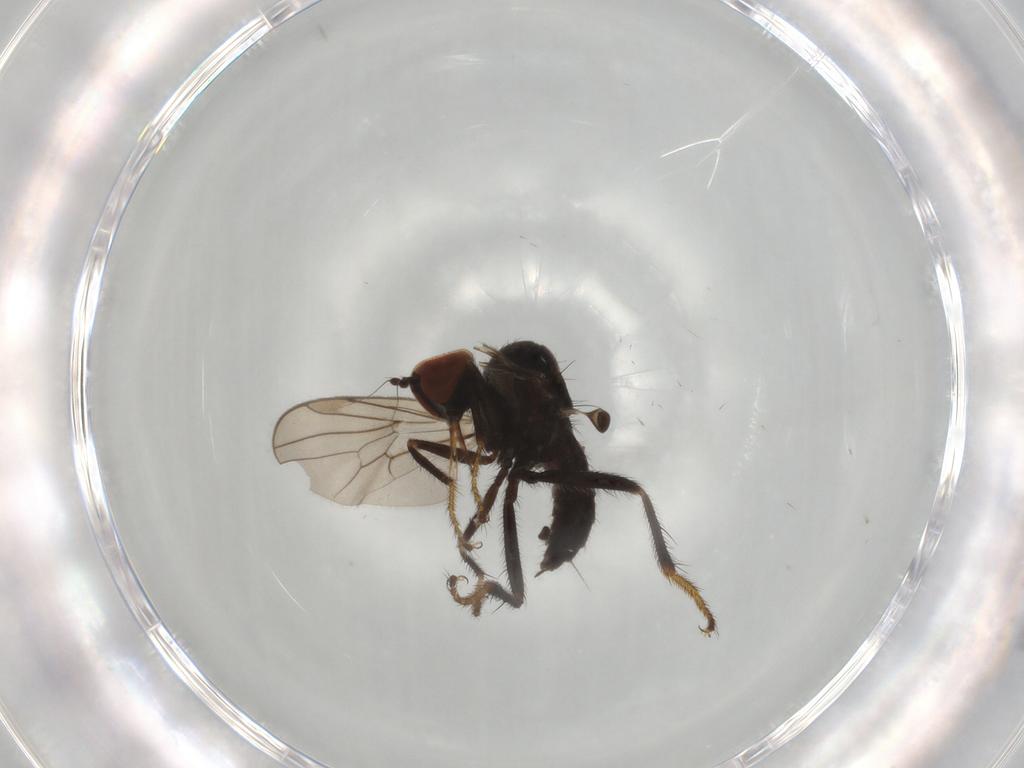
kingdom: Animalia
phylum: Arthropoda
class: Insecta
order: Diptera
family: Hybotidae
